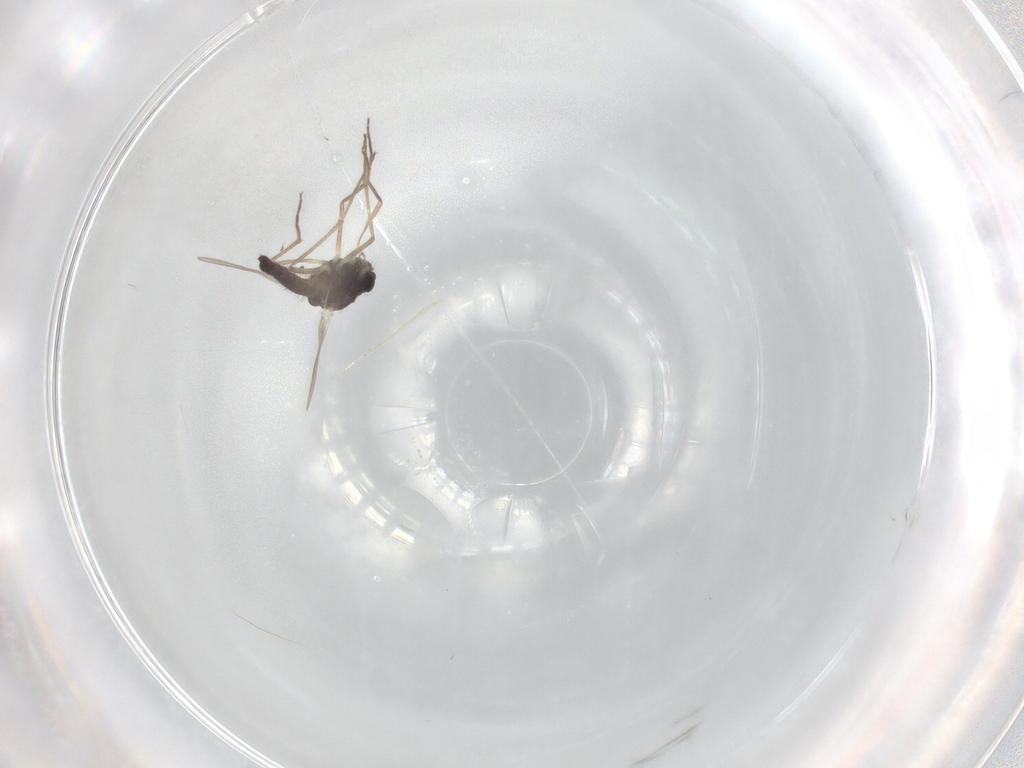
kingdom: Animalia
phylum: Arthropoda
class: Insecta
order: Diptera
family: Chironomidae
